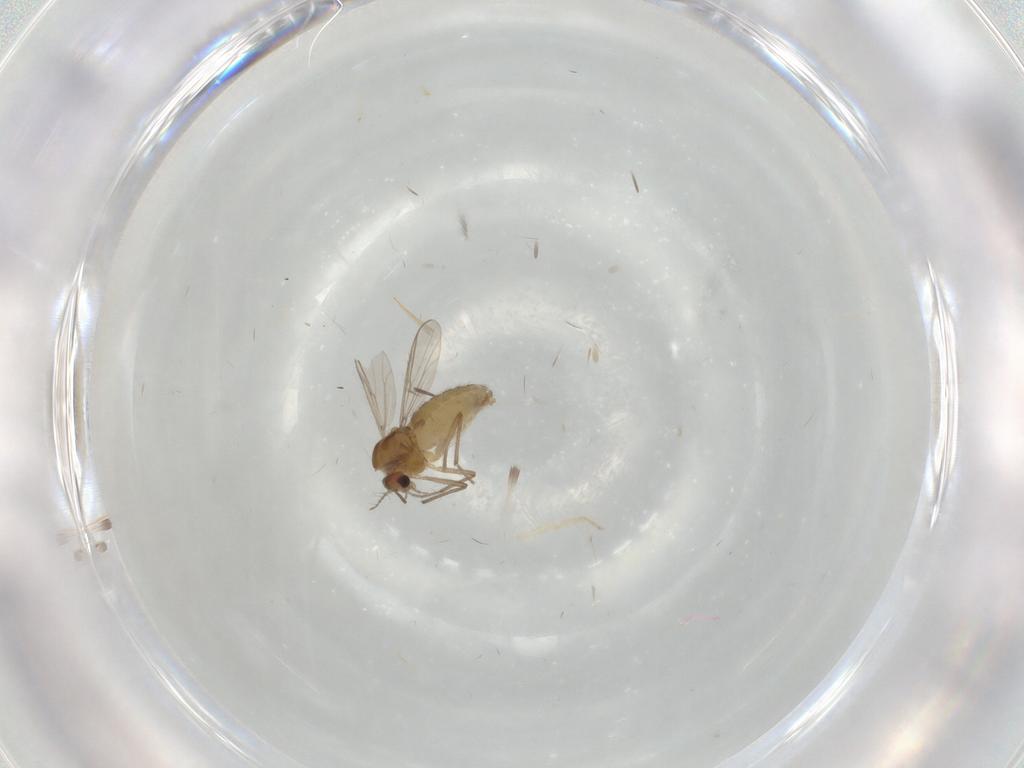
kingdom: Animalia
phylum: Arthropoda
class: Insecta
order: Diptera
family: Chironomidae
